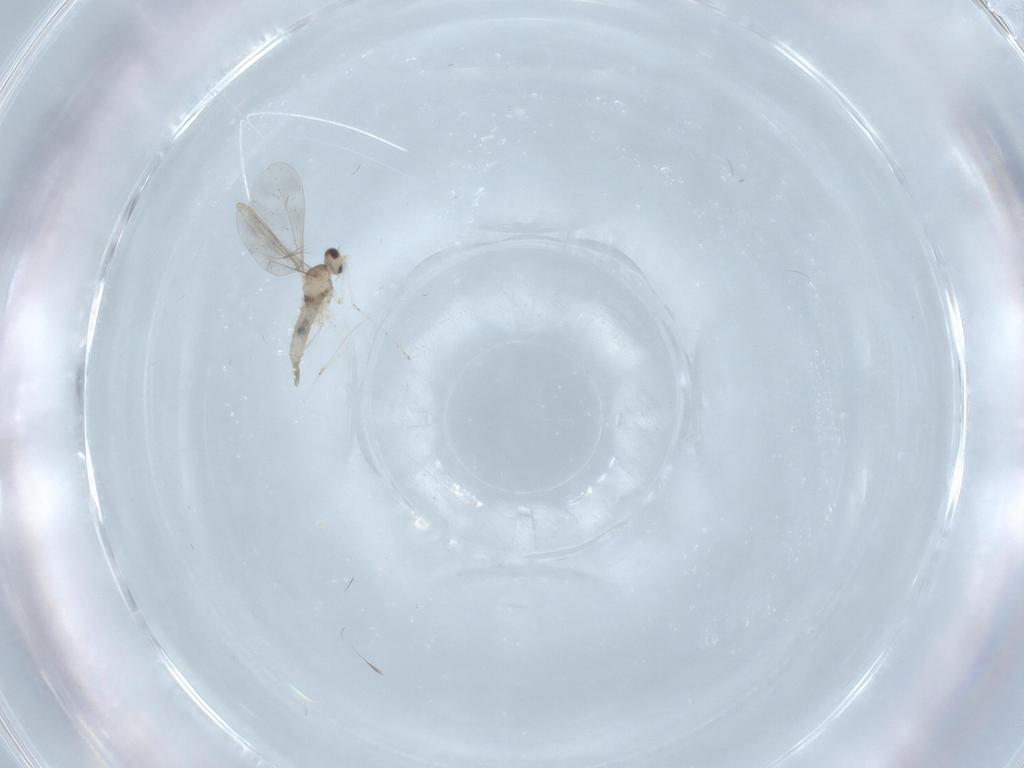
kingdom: Animalia
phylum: Arthropoda
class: Insecta
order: Diptera
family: Cecidomyiidae
